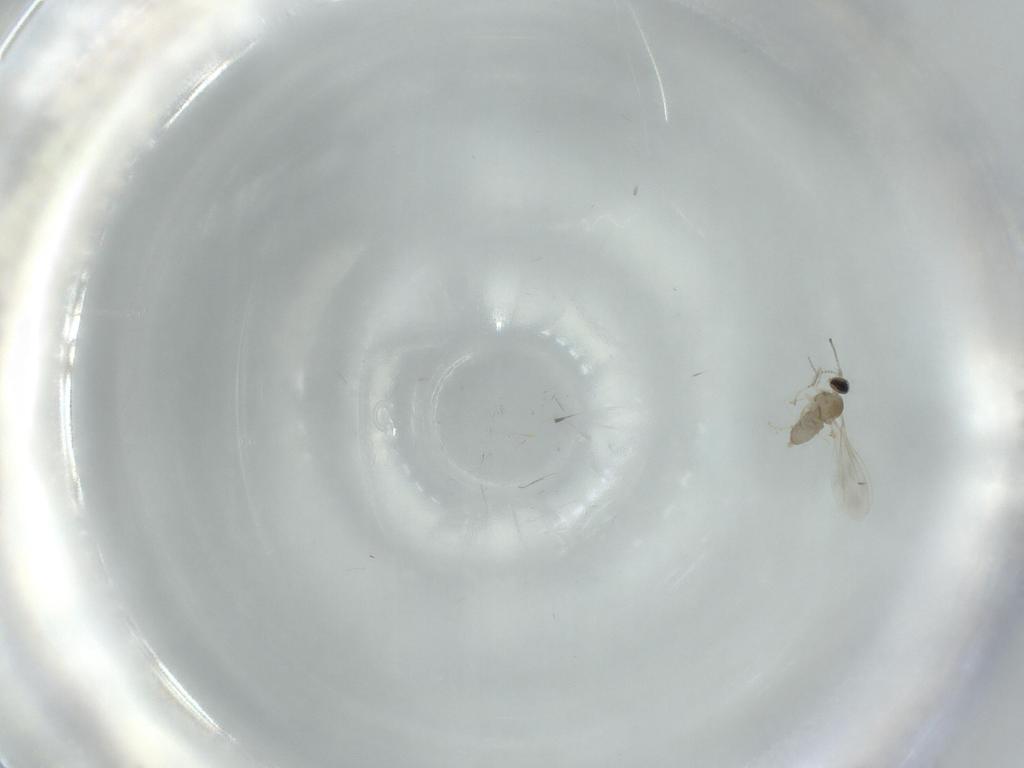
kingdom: Animalia
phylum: Arthropoda
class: Insecta
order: Diptera
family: Cecidomyiidae
